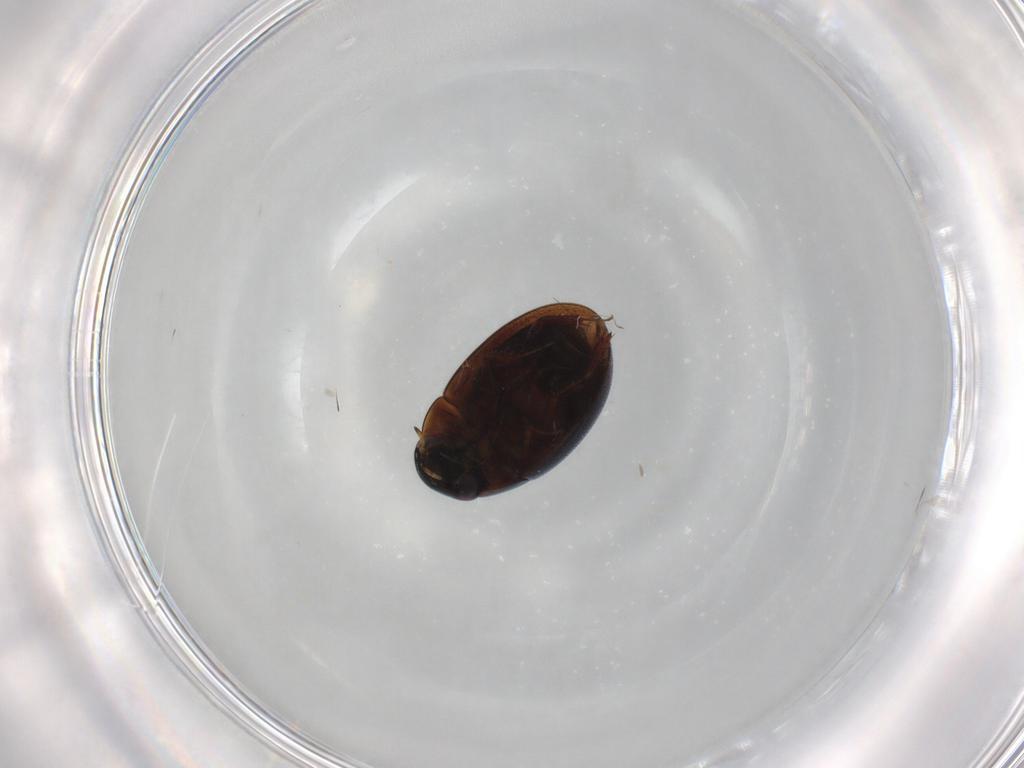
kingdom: Animalia
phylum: Arthropoda
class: Insecta
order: Coleoptera
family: Hydrophilidae
